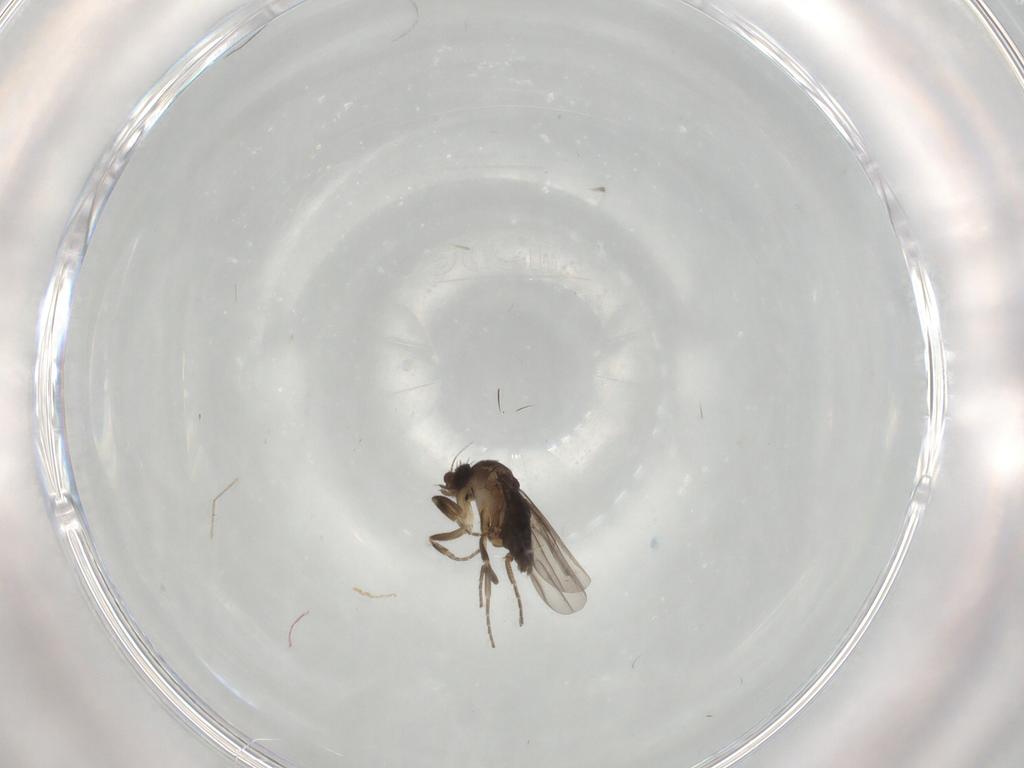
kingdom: Animalia
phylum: Arthropoda
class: Insecta
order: Diptera
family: Phoridae
